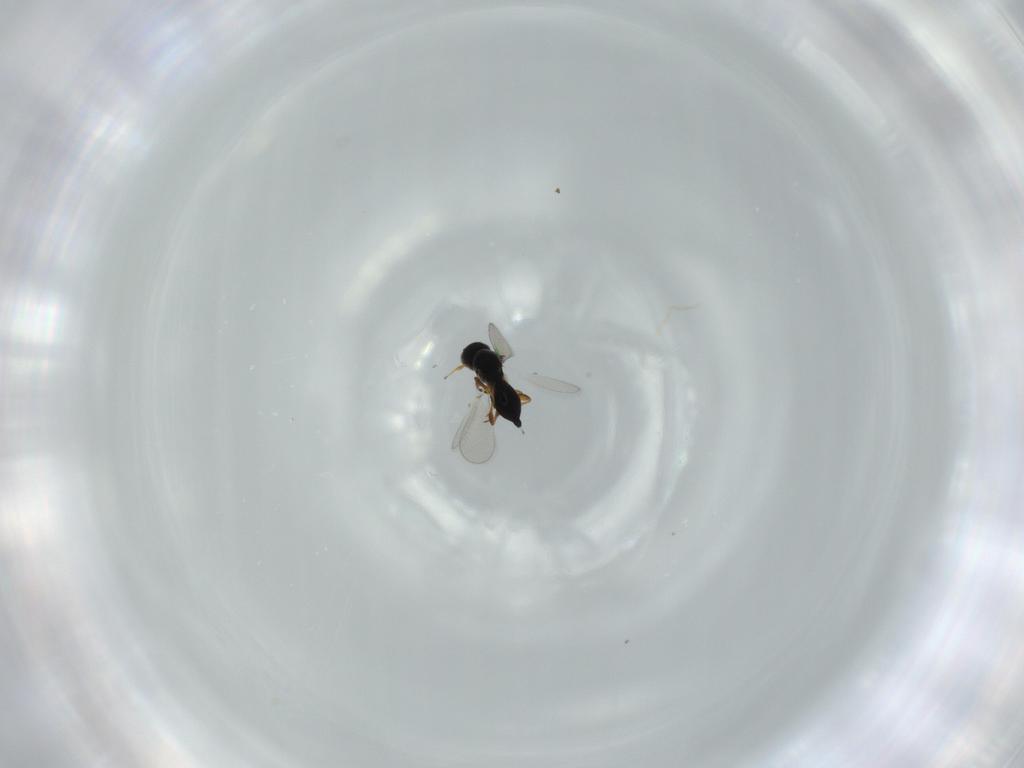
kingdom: Animalia
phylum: Arthropoda
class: Insecta
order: Hymenoptera
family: Platygastridae
